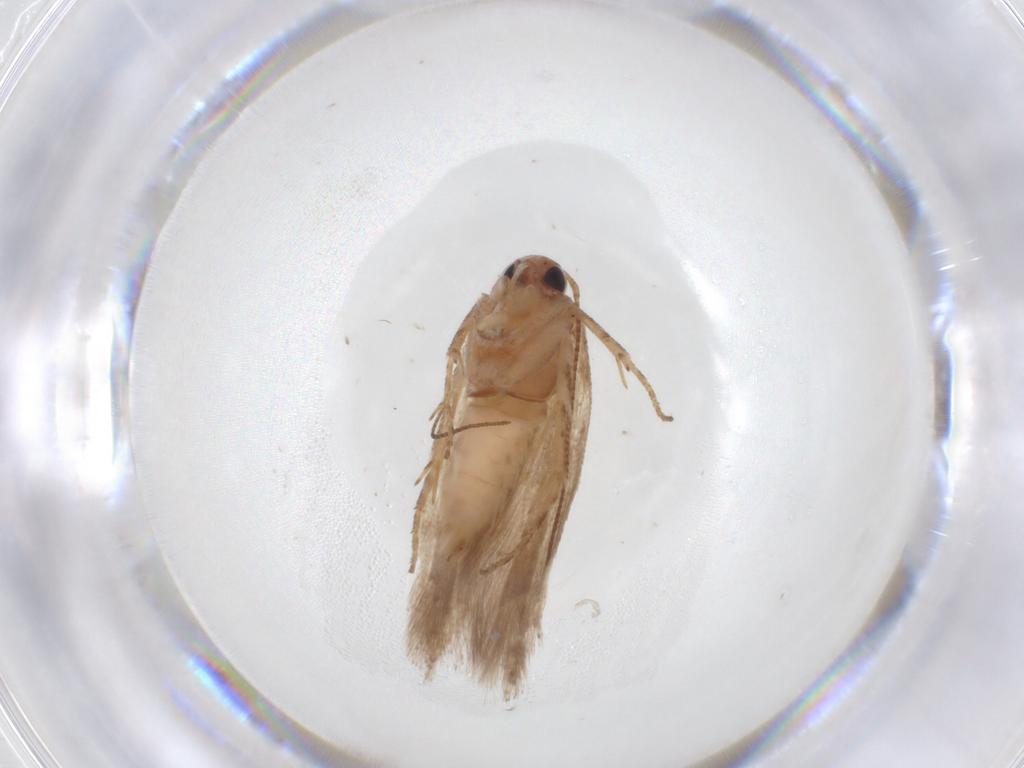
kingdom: Animalia
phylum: Arthropoda
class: Insecta
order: Lepidoptera
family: Gelechiidae
